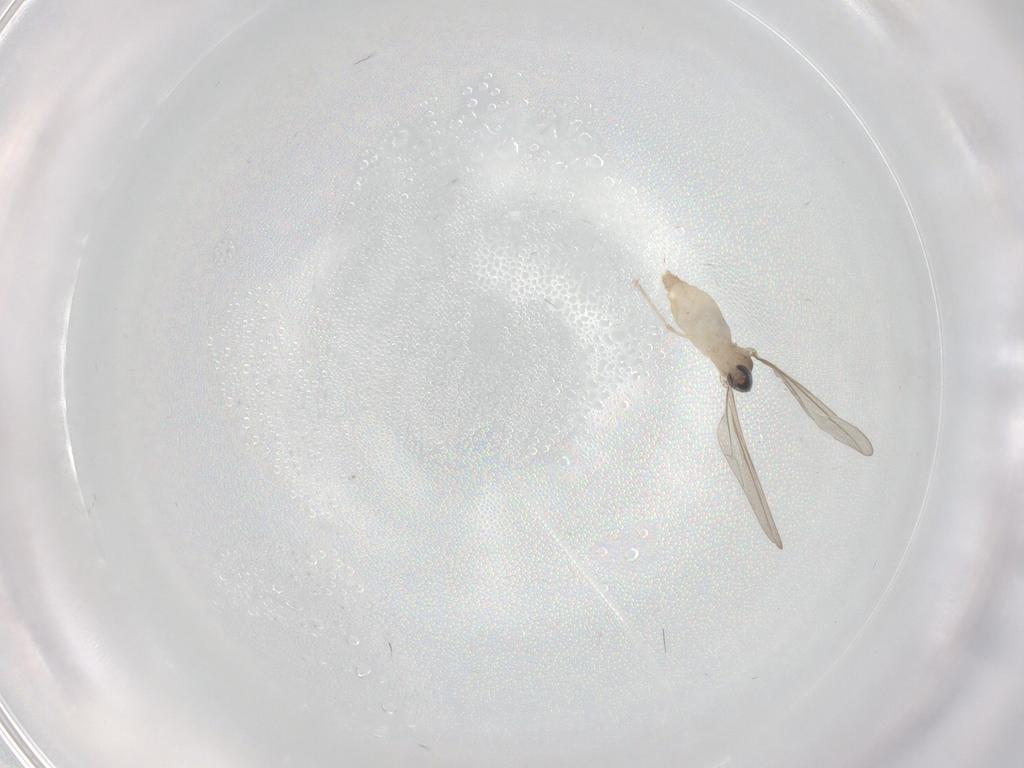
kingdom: Animalia
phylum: Arthropoda
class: Insecta
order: Diptera
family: Cecidomyiidae
